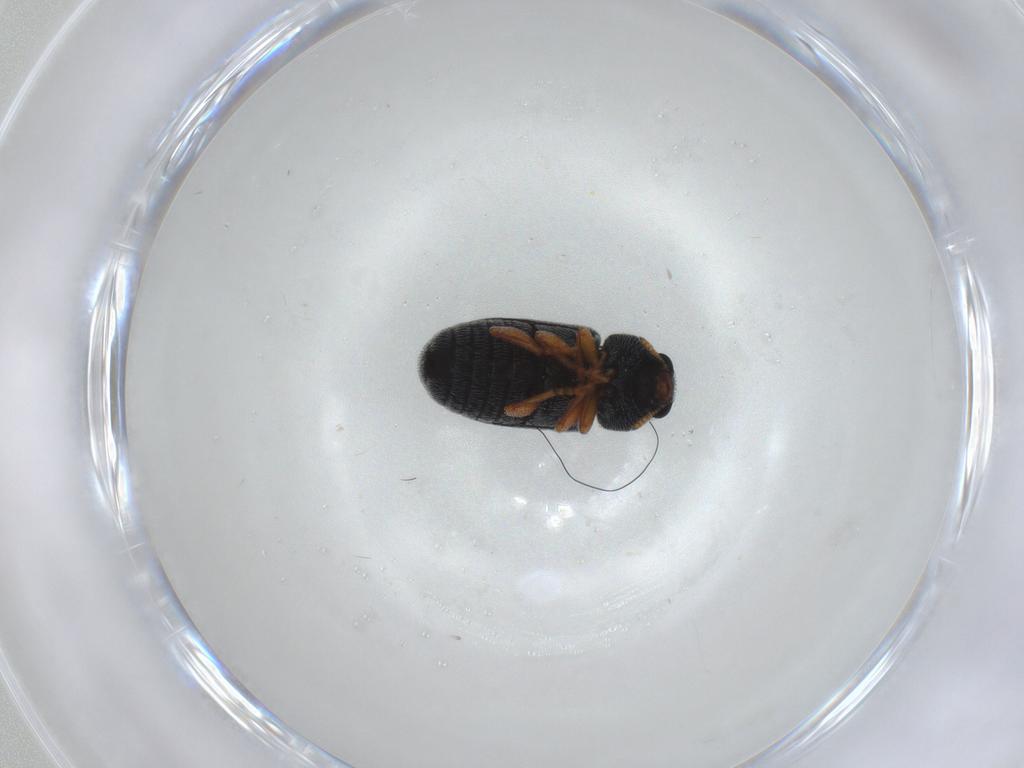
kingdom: Animalia
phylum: Arthropoda
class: Insecta
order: Coleoptera
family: Anthribidae
